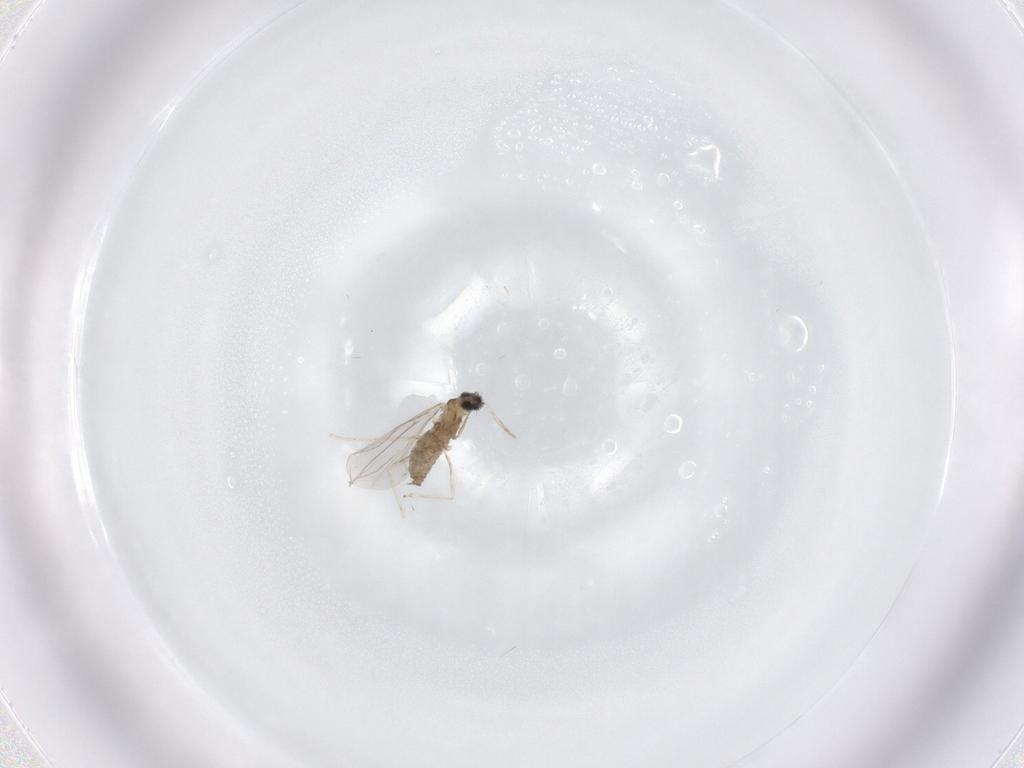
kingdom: Animalia
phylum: Arthropoda
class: Insecta
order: Diptera
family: Cecidomyiidae
